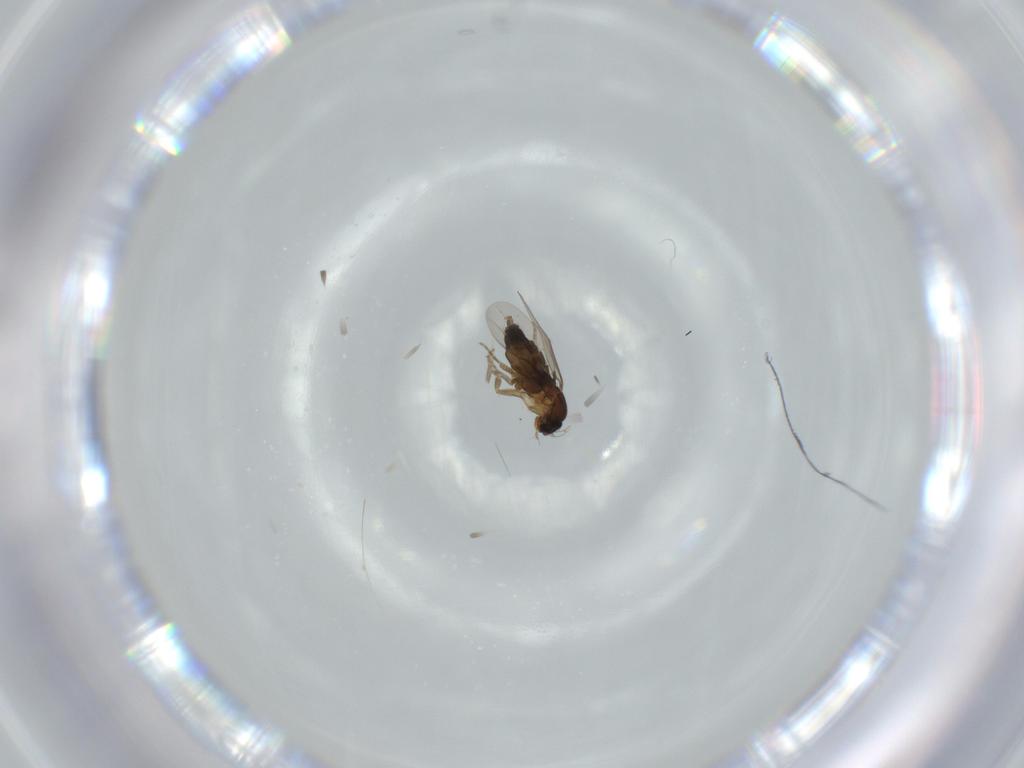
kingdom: Animalia
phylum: Arthropoda
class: Insecta
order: Diptera
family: Phoridae
